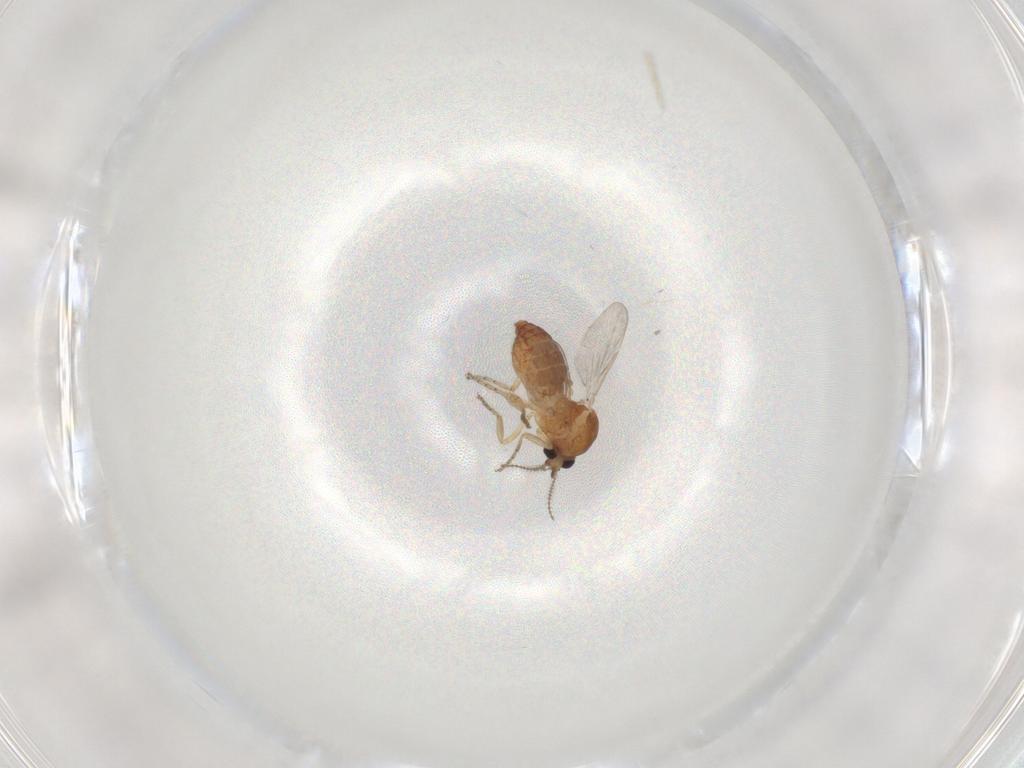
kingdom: Animalia
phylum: Arthropoda
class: Insecta
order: Diptera
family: Ceratopogonidae
